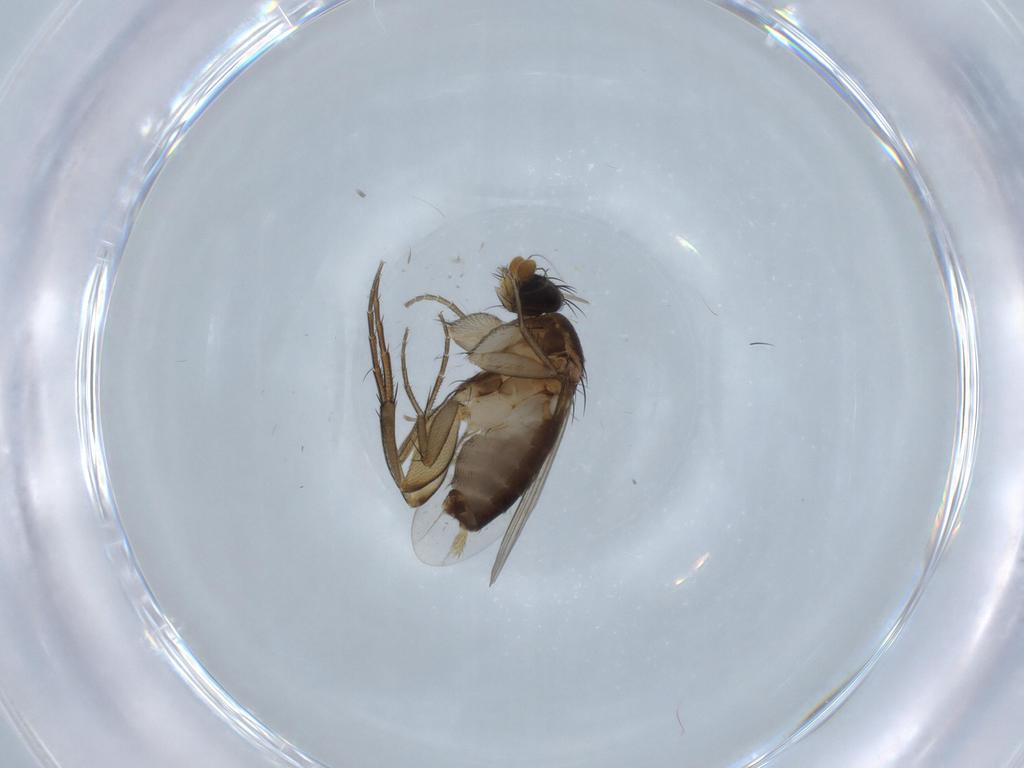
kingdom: Animalia
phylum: Arthropoda
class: Insecta
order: Diptera
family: Phoridae
